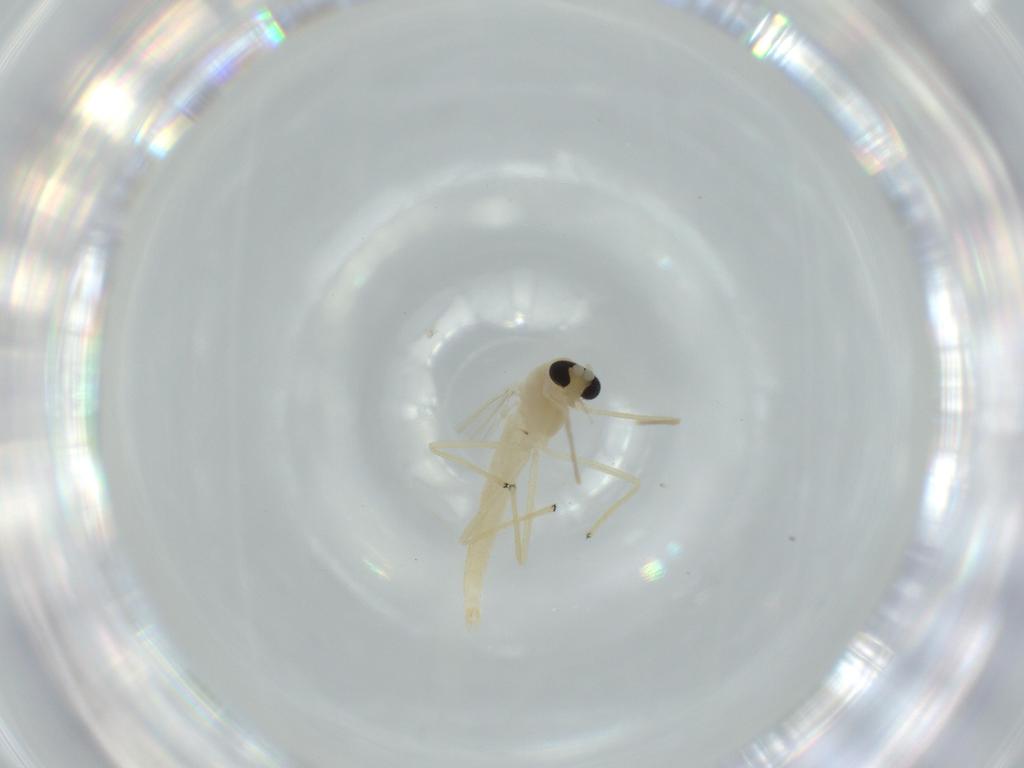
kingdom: Animalia
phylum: Arthropoda
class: Insecta
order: Diptera
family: Chironomidae
